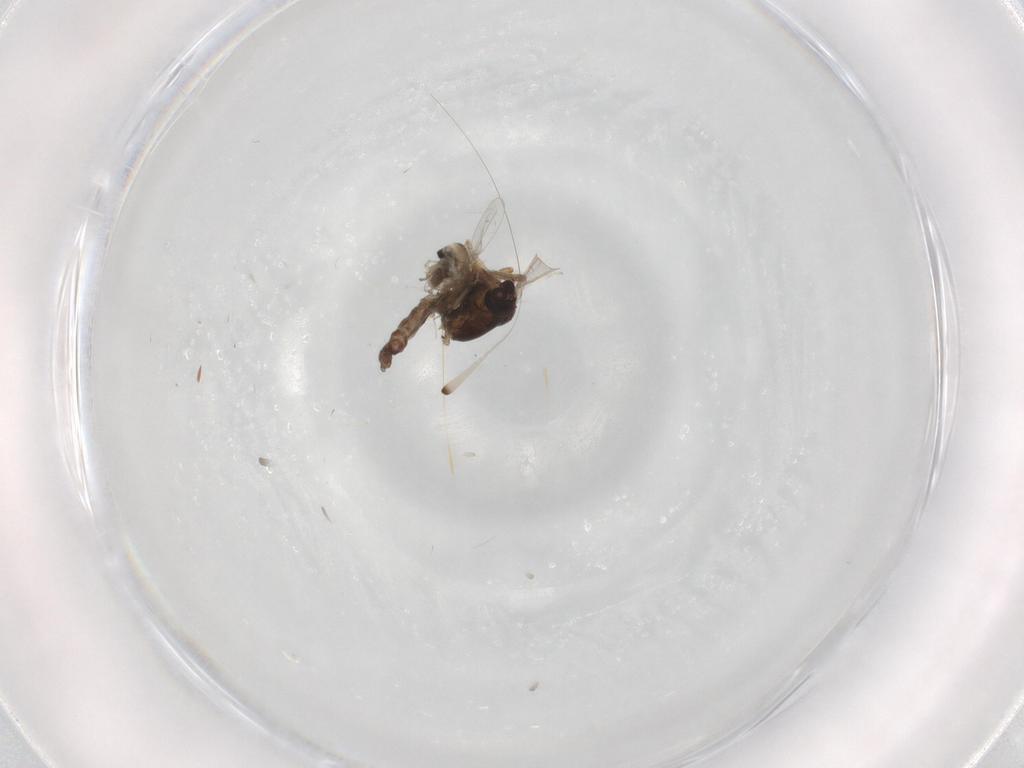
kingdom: Animalia
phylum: Arthropoda
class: Insecta
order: Diptera
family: Cecidomyiidae
